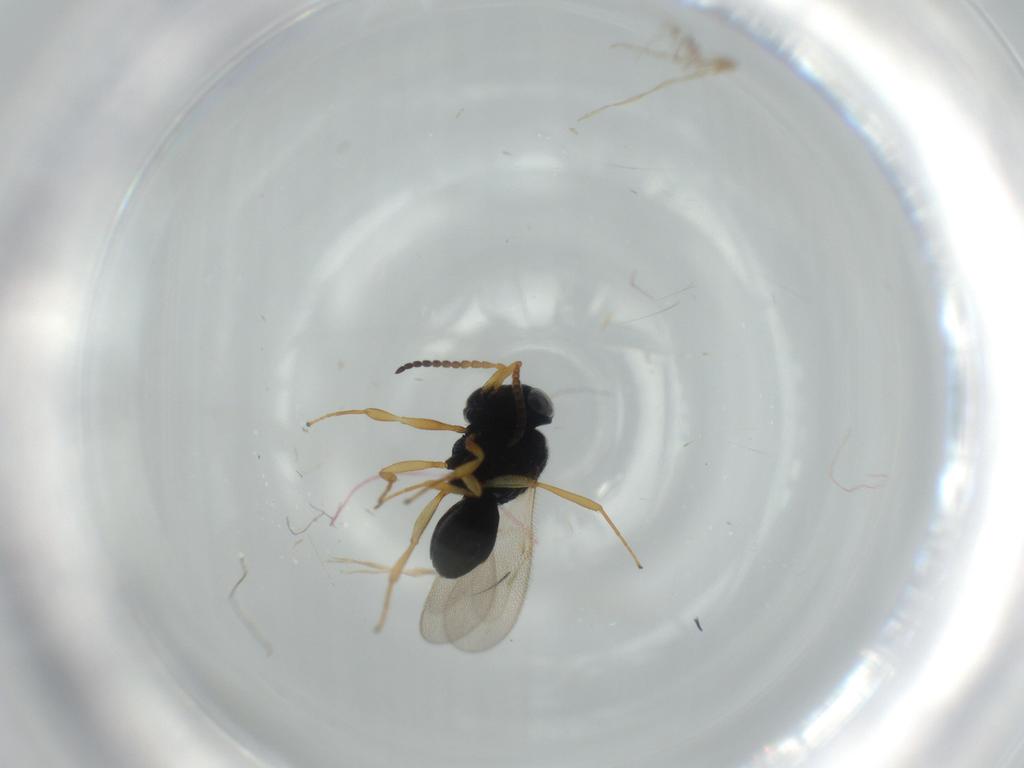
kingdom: Animalia
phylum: Arthropoda
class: Insecta
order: Hymenoptera
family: Scelionidae
